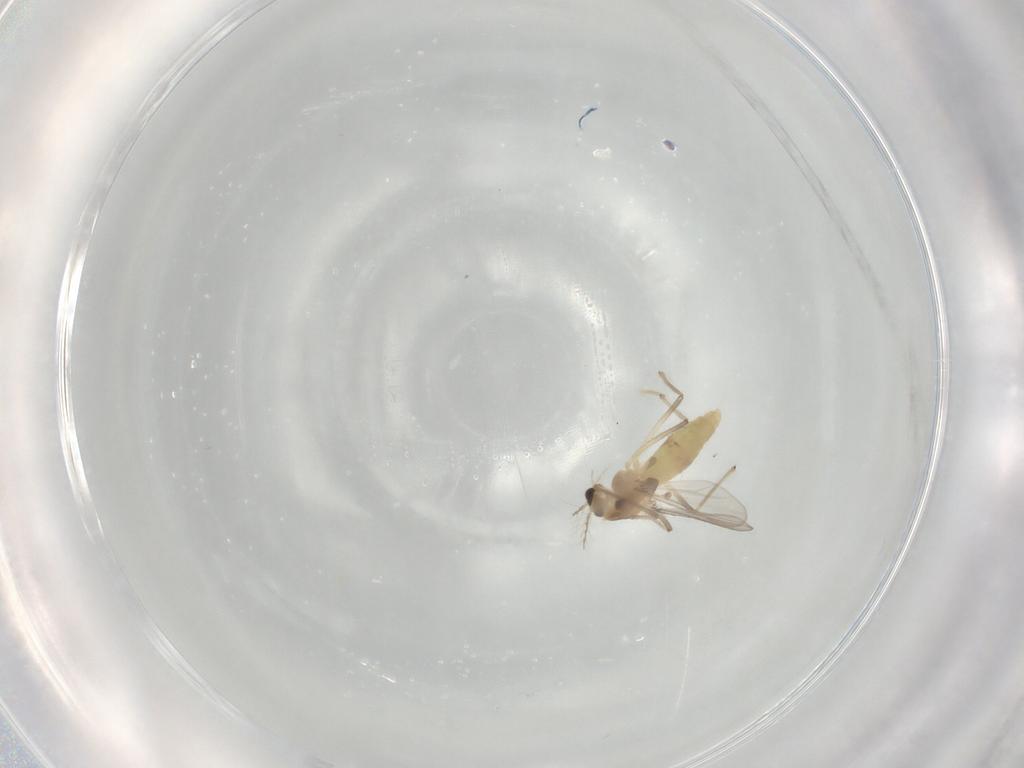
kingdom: Animalia
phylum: Arthropoda
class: Insecta
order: Diptera
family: Chironomidae
